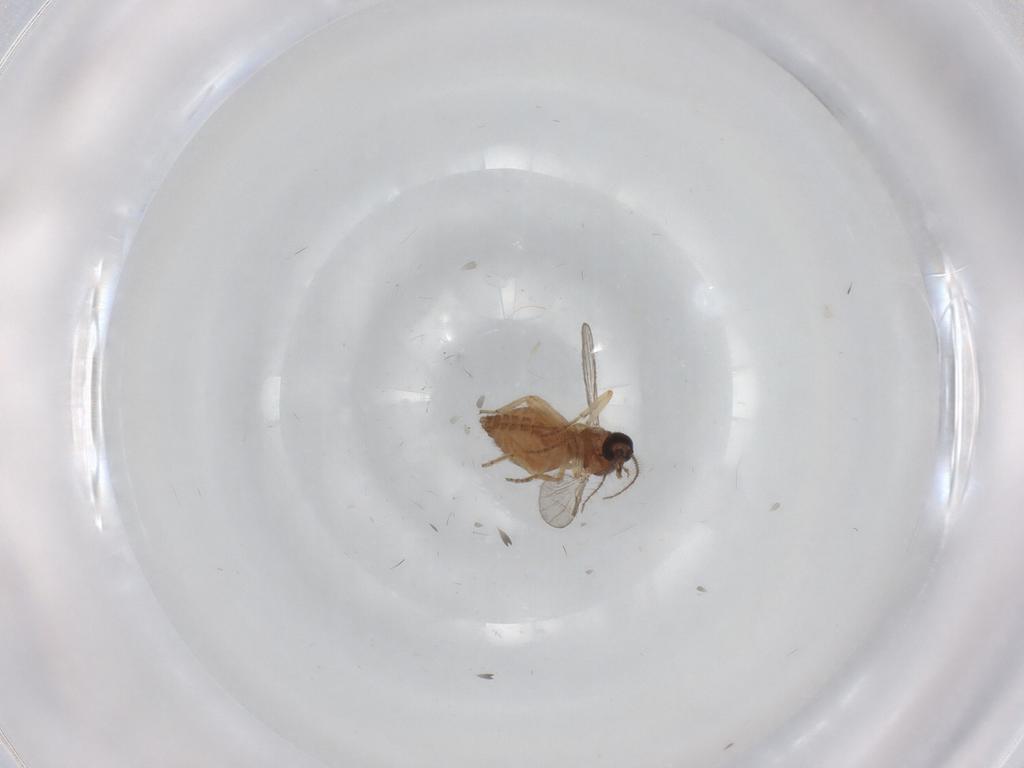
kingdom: Animalia
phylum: Arthropoda
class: Insecta
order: Diptera
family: Ceratopogonidae
